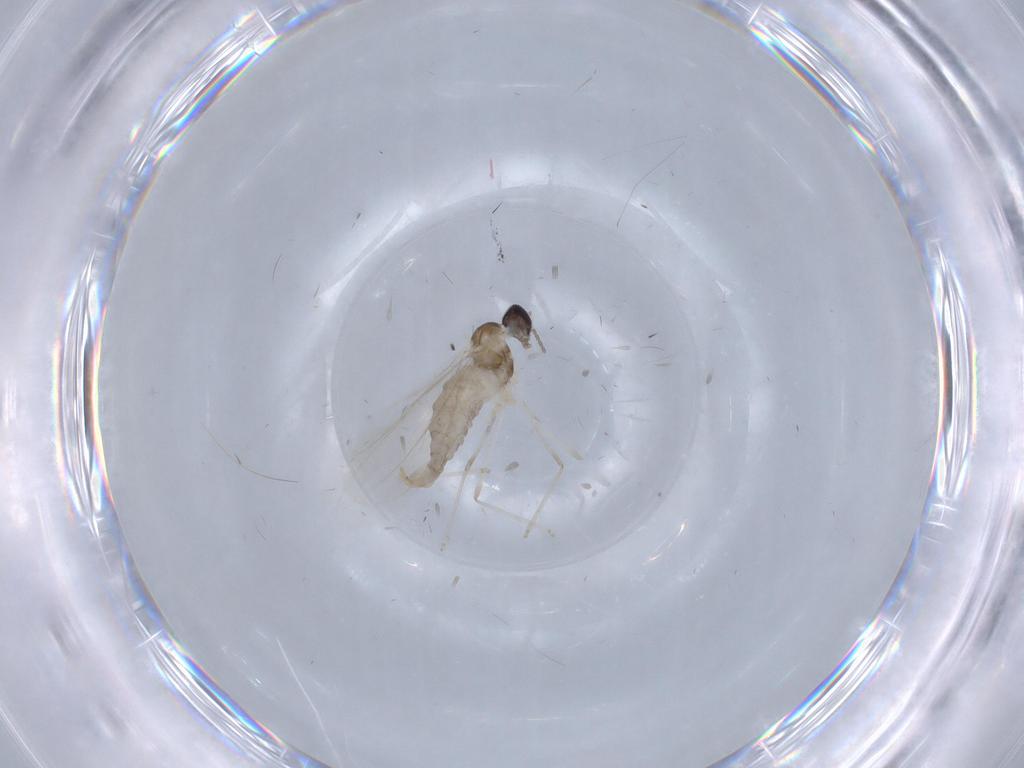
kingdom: Animalia
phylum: Arthropoda
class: Insecta
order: Diptera
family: Cecidomyiidae
